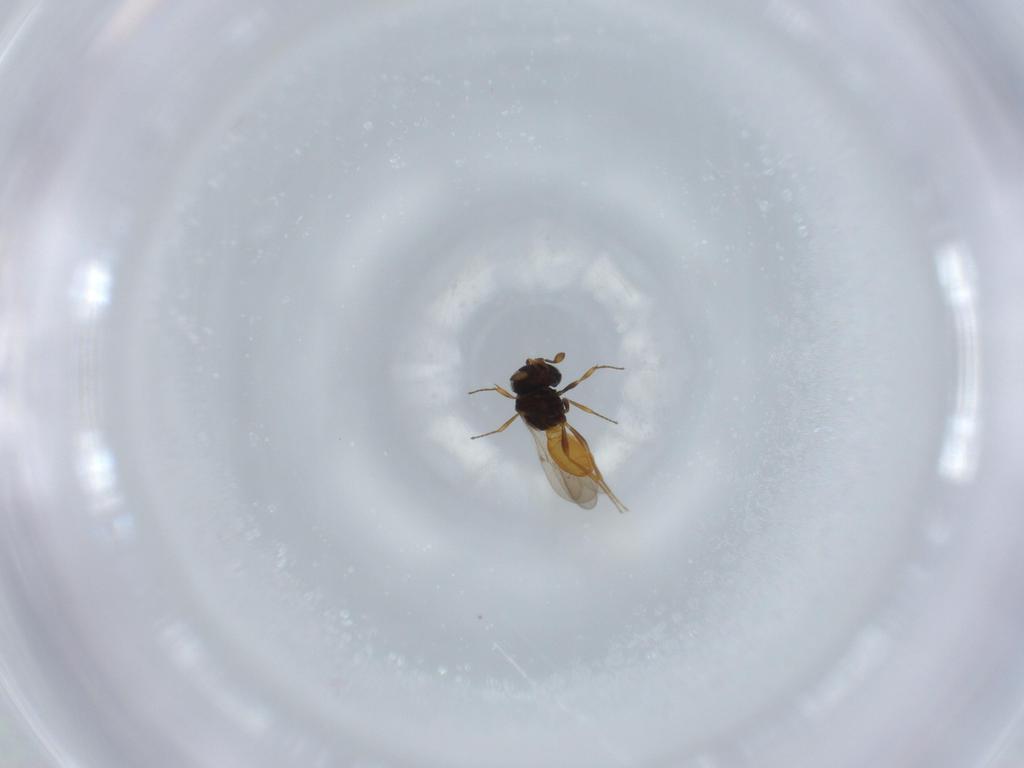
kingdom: Animalia
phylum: Arthropoda
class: Insecta
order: Hymenoptera
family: Scelionidae
